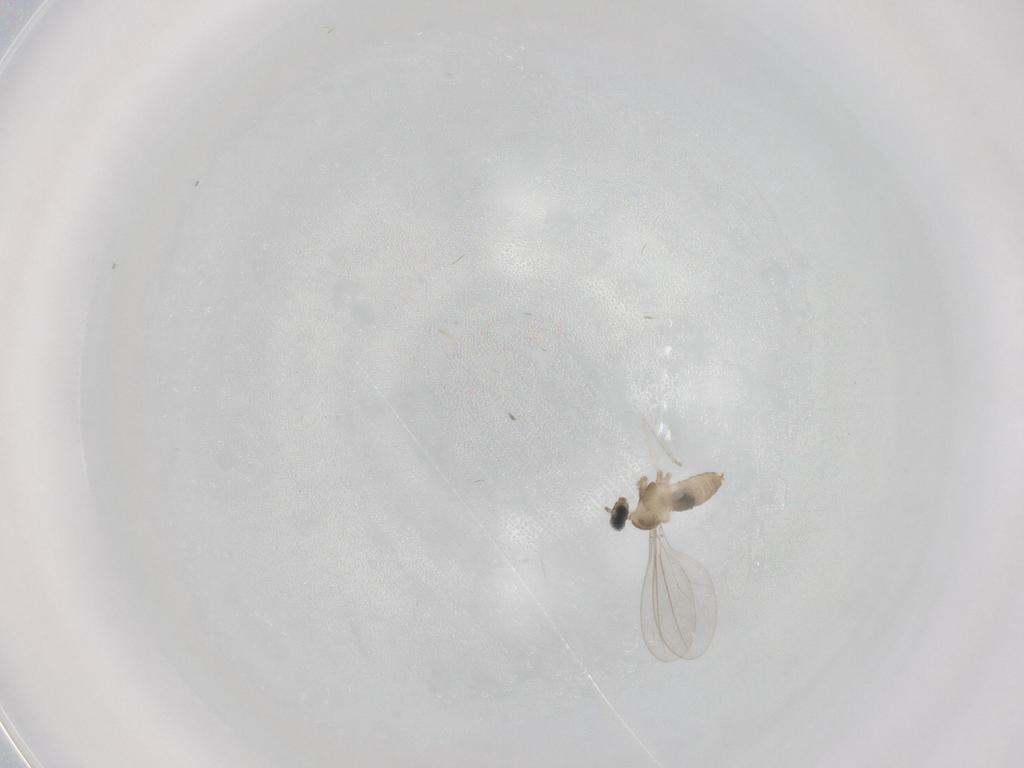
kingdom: Animalia
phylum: Arthropoda
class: Insecta
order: Diptera
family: Cecidomyiidae
